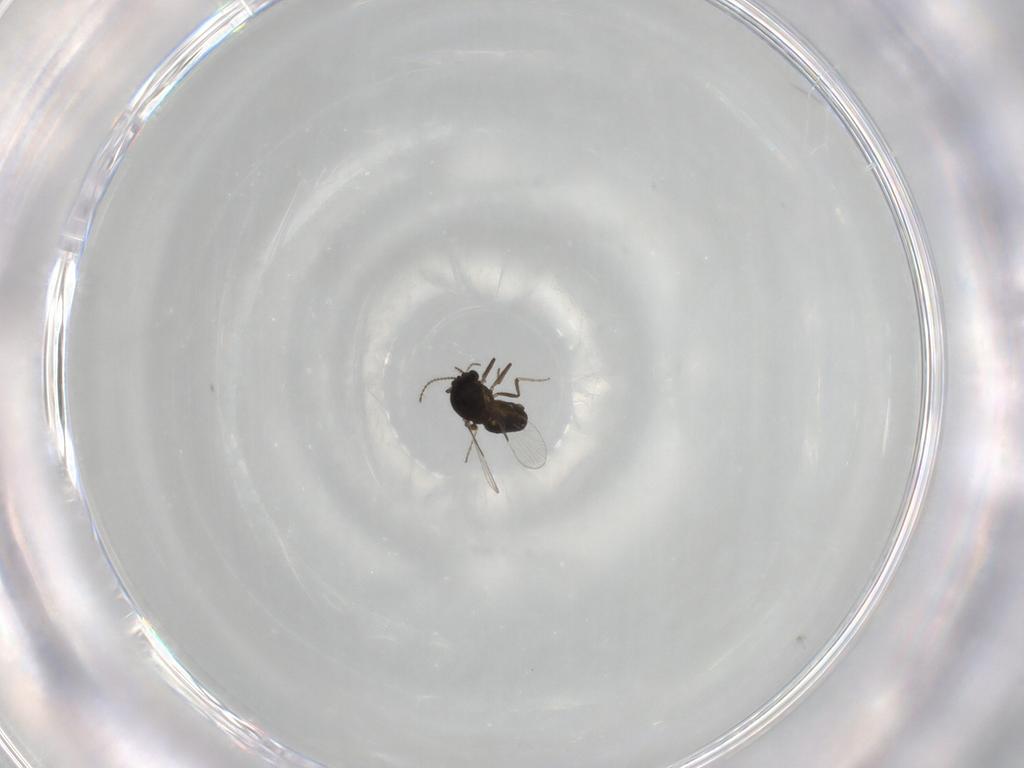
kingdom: Animalia
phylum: Arthropoda
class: Insecta
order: Diptera
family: Ceratopogonidae
